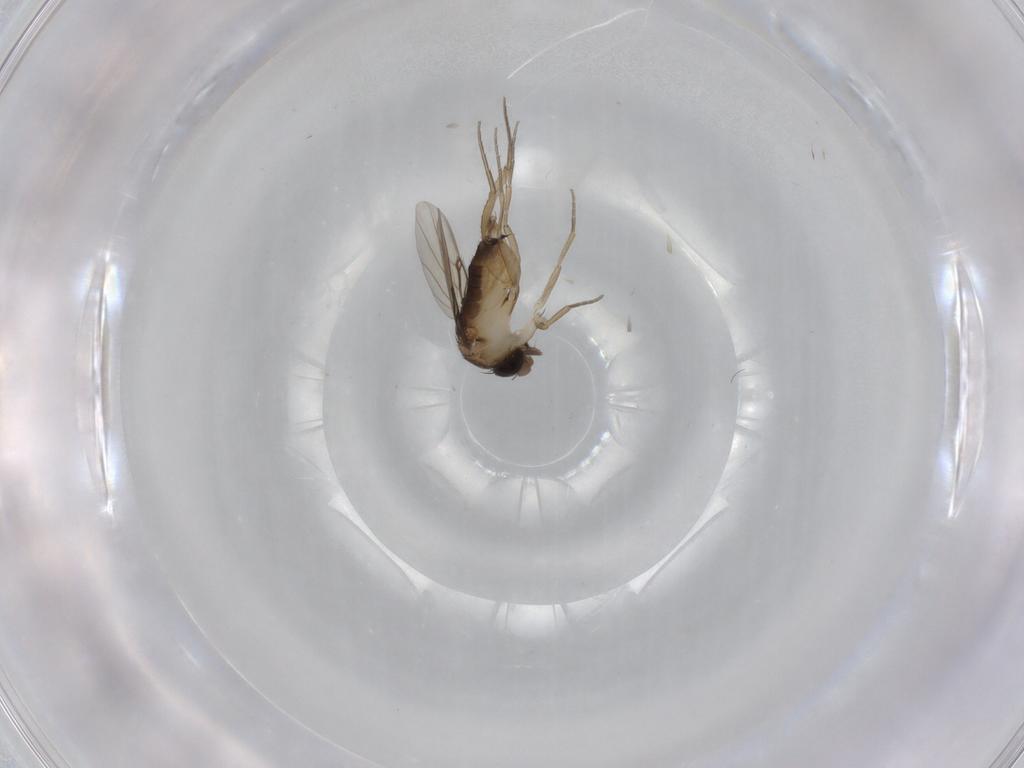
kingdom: Animalia
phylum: Arthropoda
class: Insecta
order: Diptera
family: Phoridae
